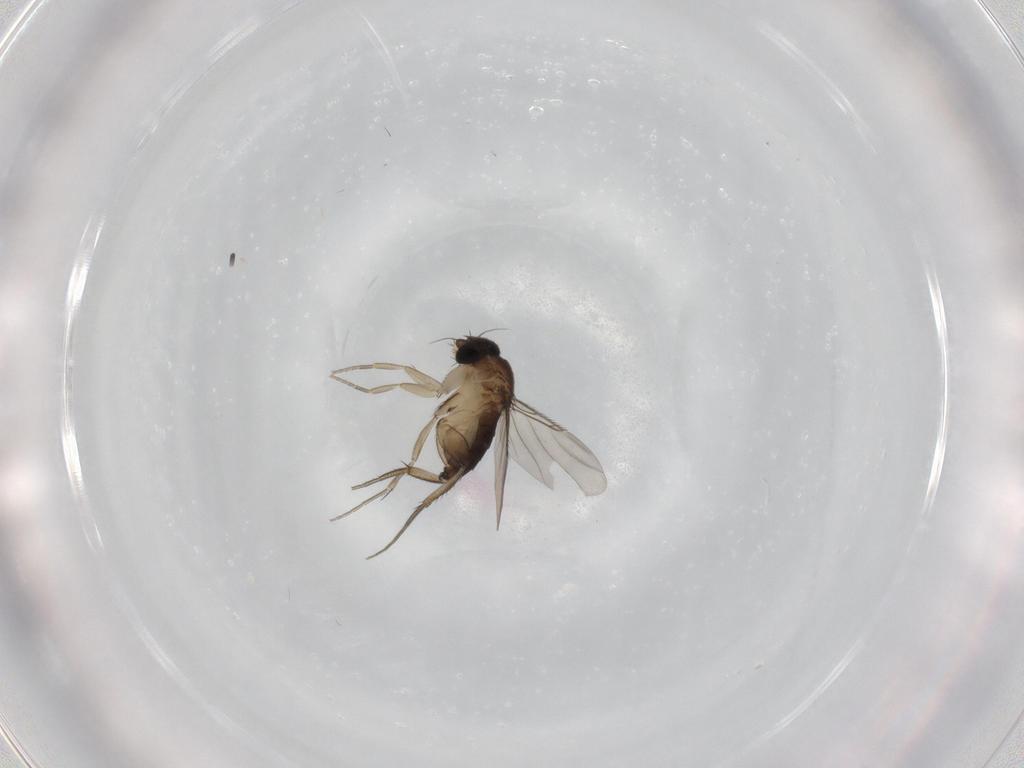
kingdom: Animalia
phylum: Arthropoda
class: Insecta
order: Diptera
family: Phoridae
